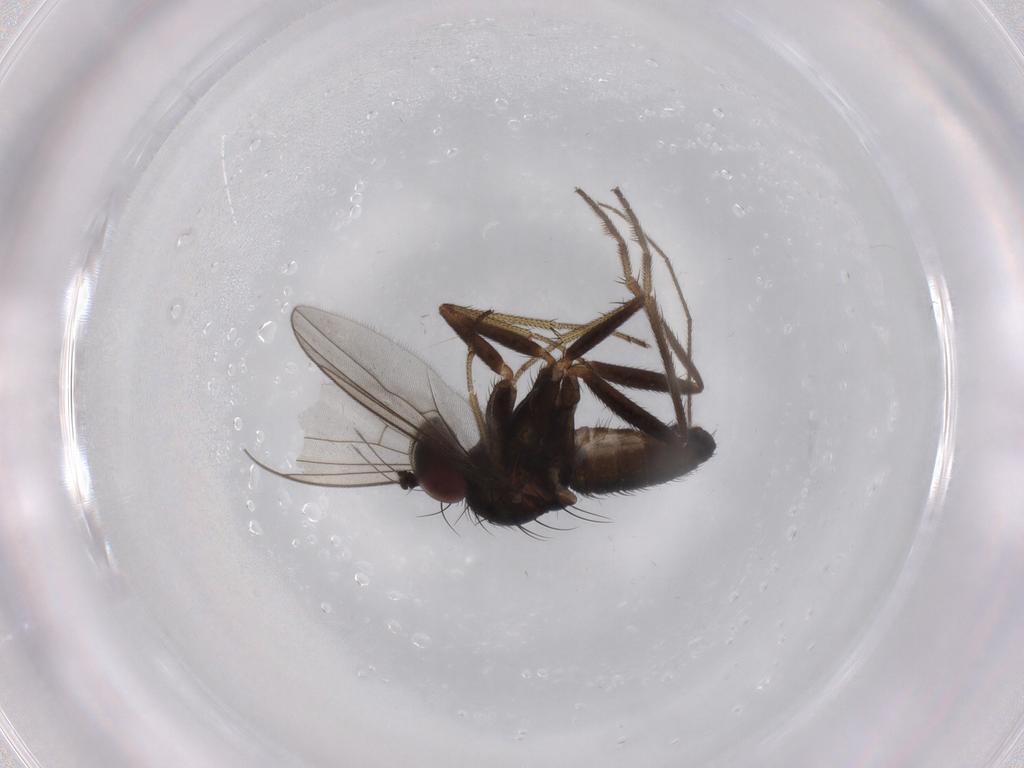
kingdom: Animalia
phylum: Arthropoda
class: Insecta
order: Diptera
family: Dolichopodidae
